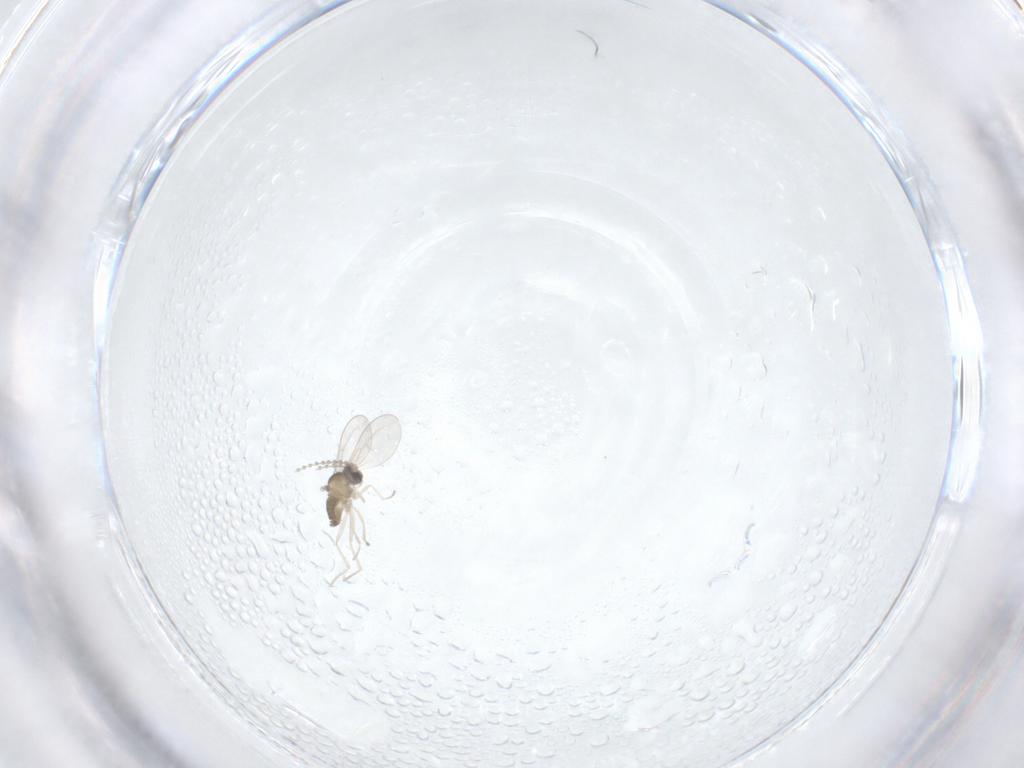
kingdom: Animalia
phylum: Arthropoda
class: Insecta
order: Diptera
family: Cecidomyiidae
